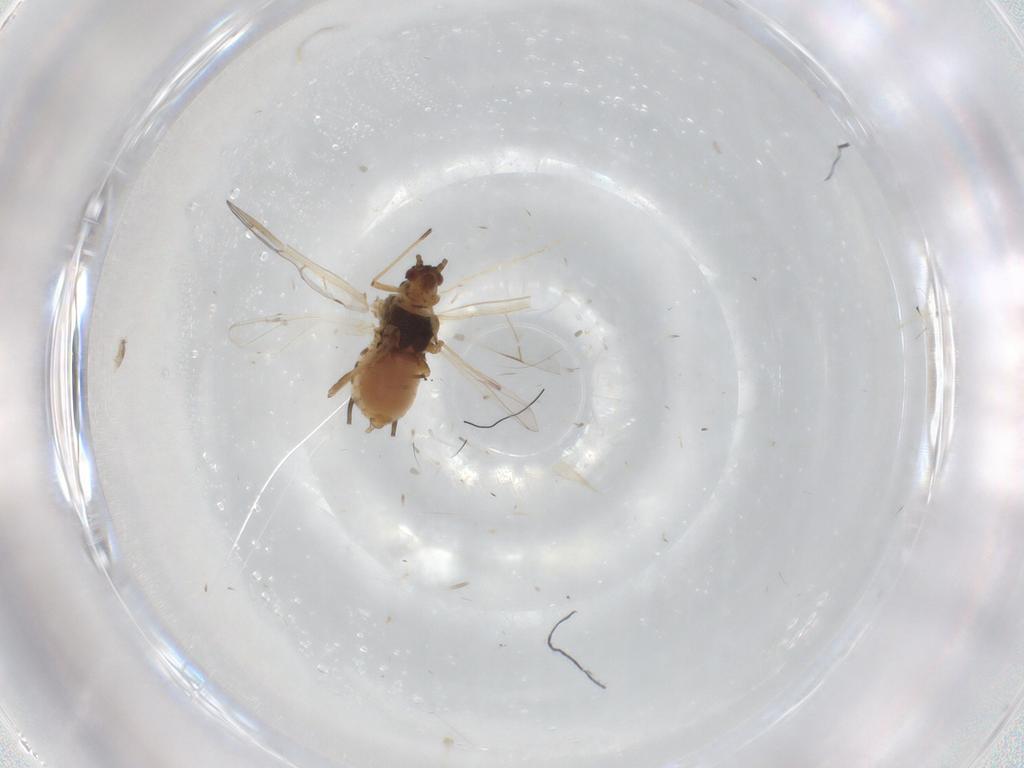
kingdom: Animalia
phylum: Arthropoda
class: Insecta
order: Hemiptera
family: Aphididae
